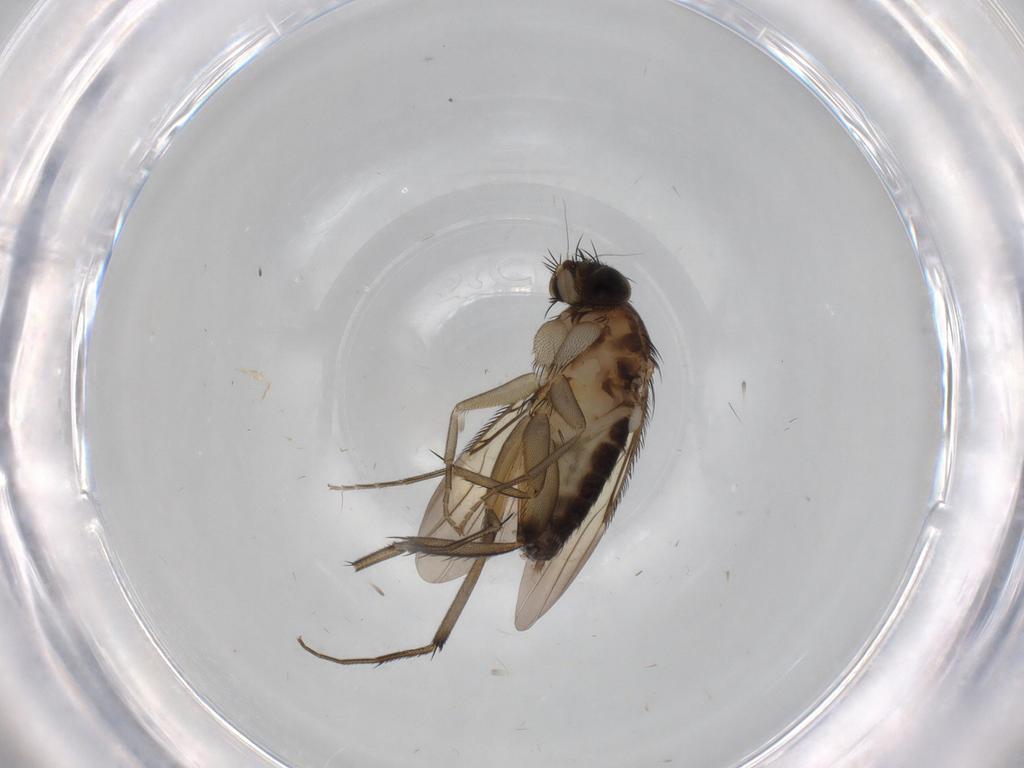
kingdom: Animalia
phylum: Arthropoda
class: Insecta
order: Diptera
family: Phoridae
